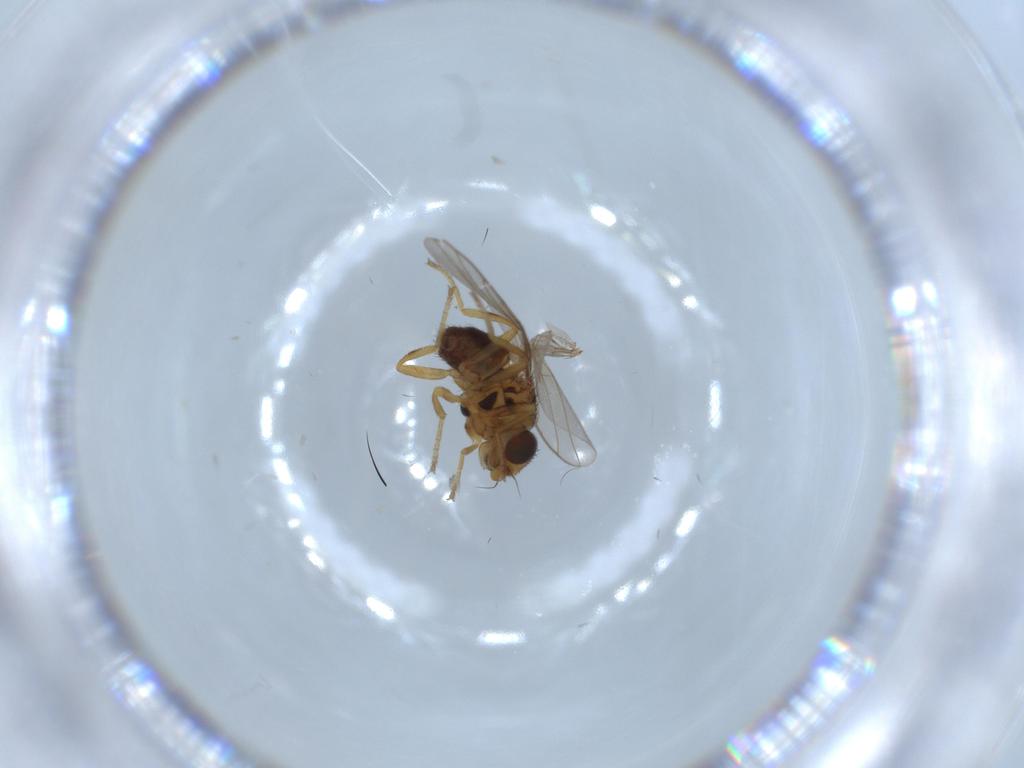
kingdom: Animalia
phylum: Arthropoda
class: Insecta
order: Diptera
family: Chloropidae
